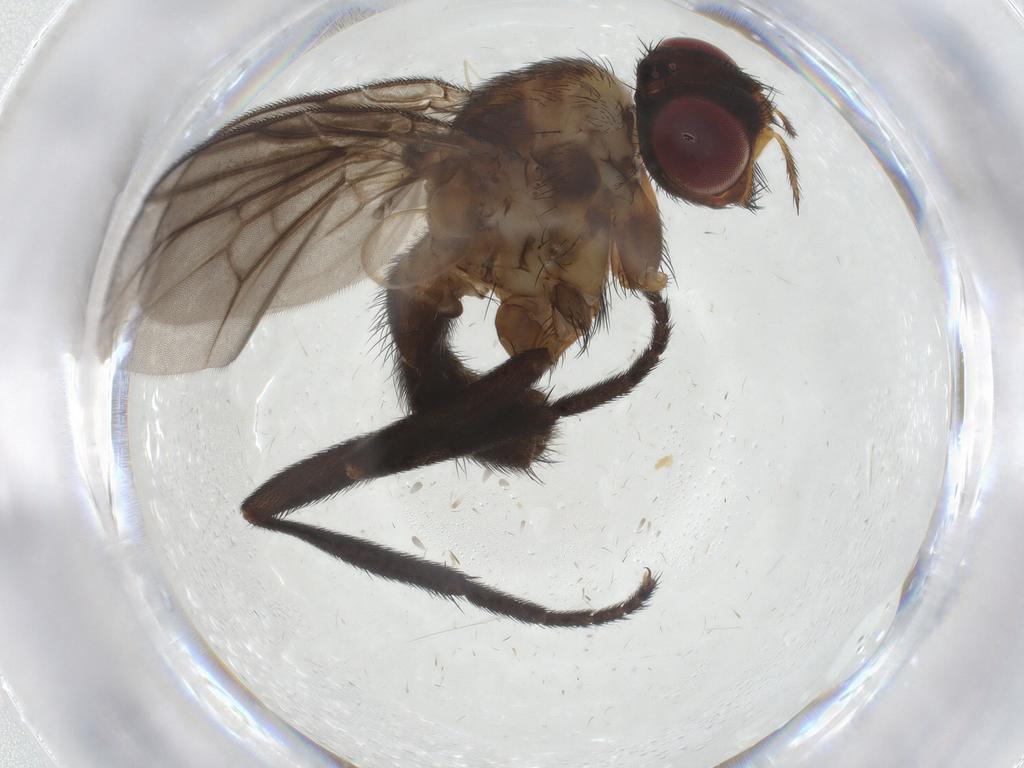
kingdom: Animalia
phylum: Arthropoda
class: Insecta
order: Diptera
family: Calliphoridae
